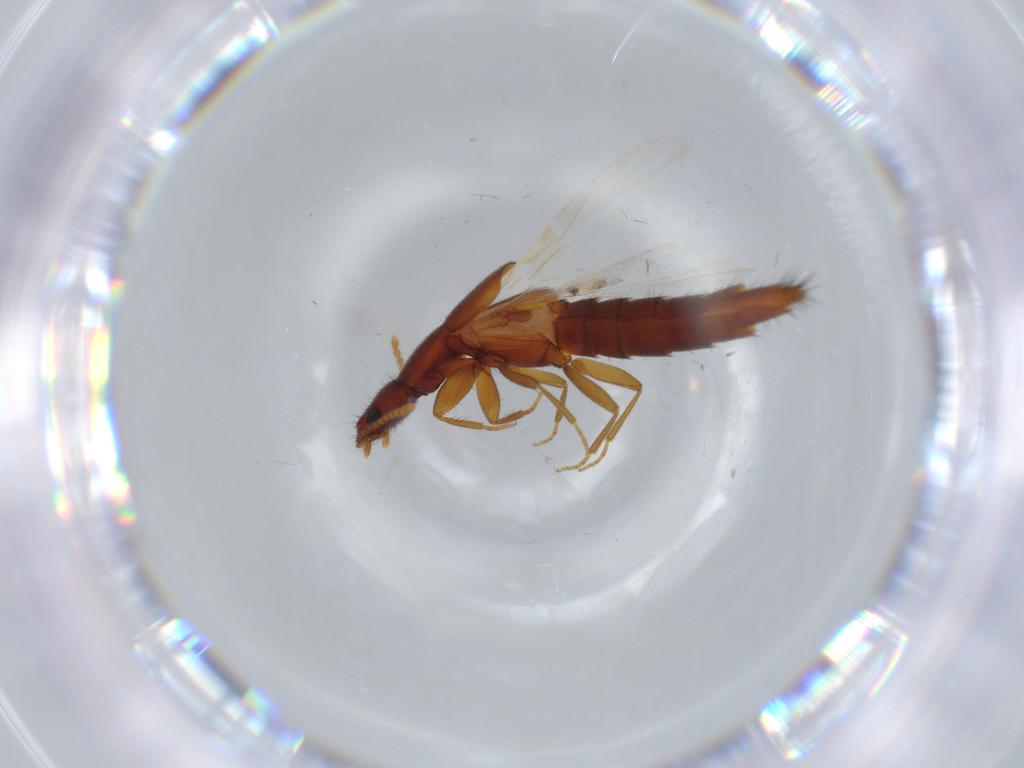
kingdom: Animalia
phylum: Arthropoda
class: Insecta
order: Coleoptera
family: Staphylinidae
